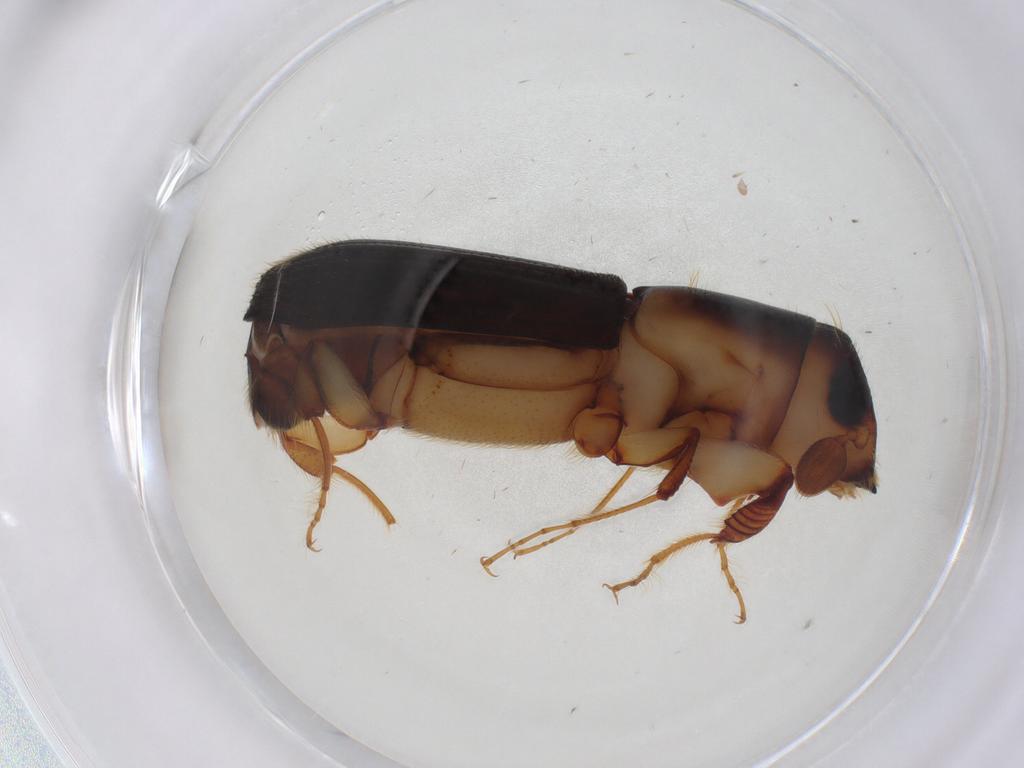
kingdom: Animalia
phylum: Arthropoda
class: Insecta
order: Coleoptera
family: Curculionidae
